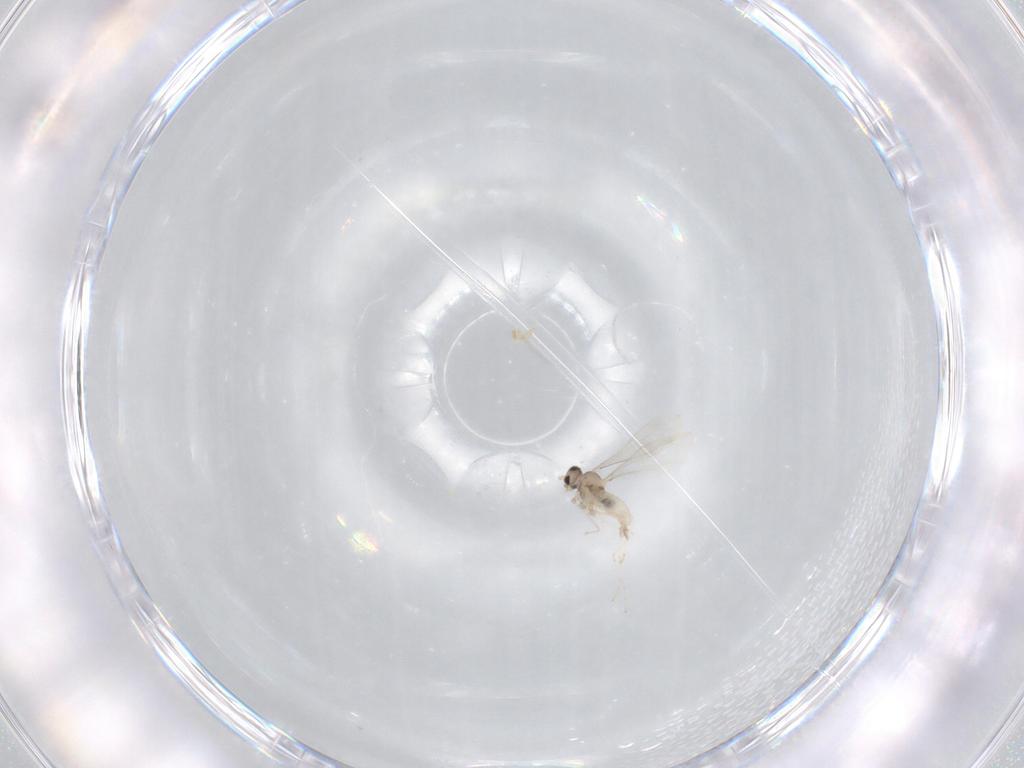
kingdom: Animalia
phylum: Arthropoda
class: Insecta
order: Diptera
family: Cecidomyiidae
